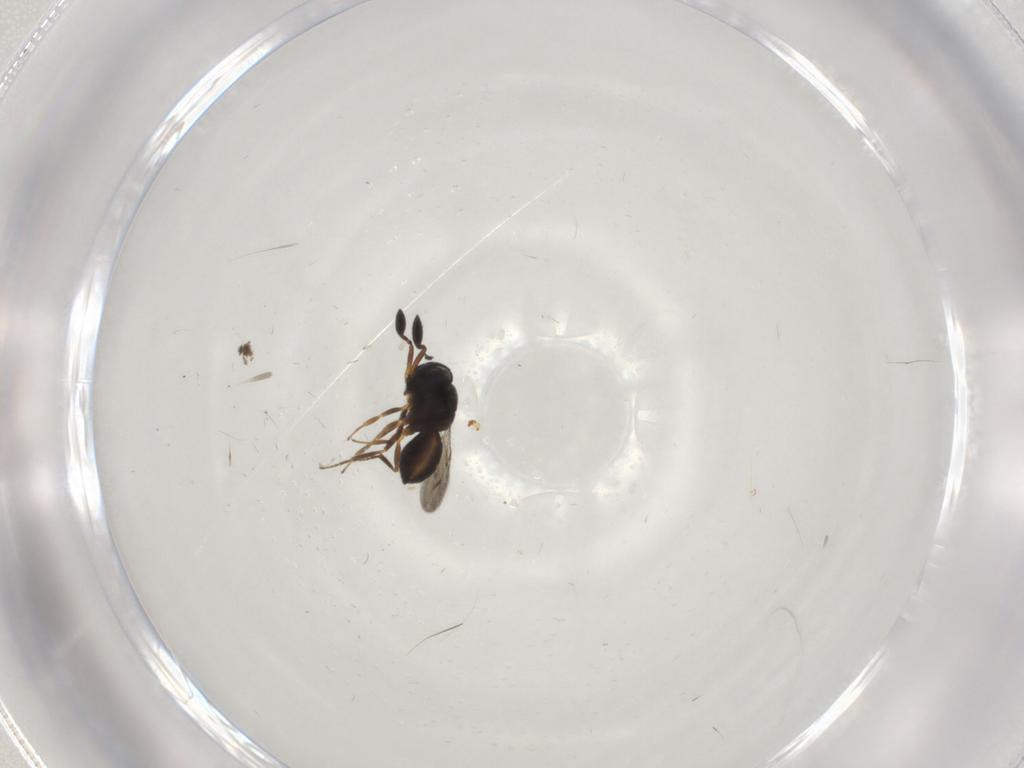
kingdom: Animalia
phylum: Arthropoda
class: Insecta
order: Hymenoptera
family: Scelionidae
